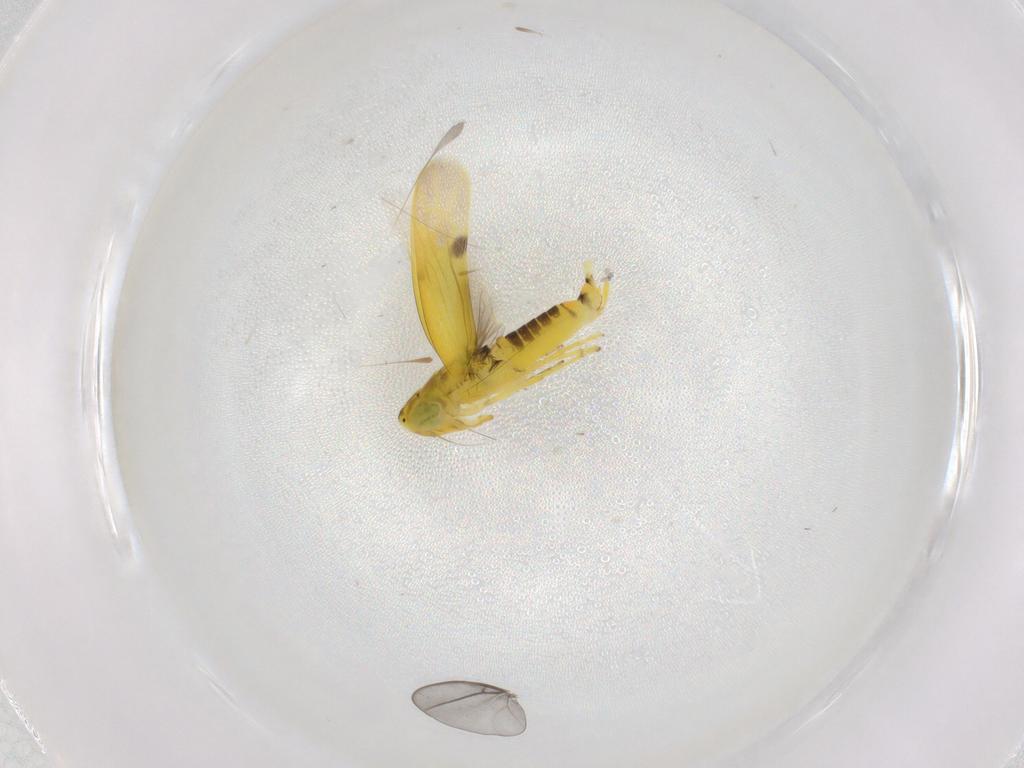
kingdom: Animalia
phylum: Arthropoda
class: Insecta
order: Hemiptera
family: Cicadellidae
